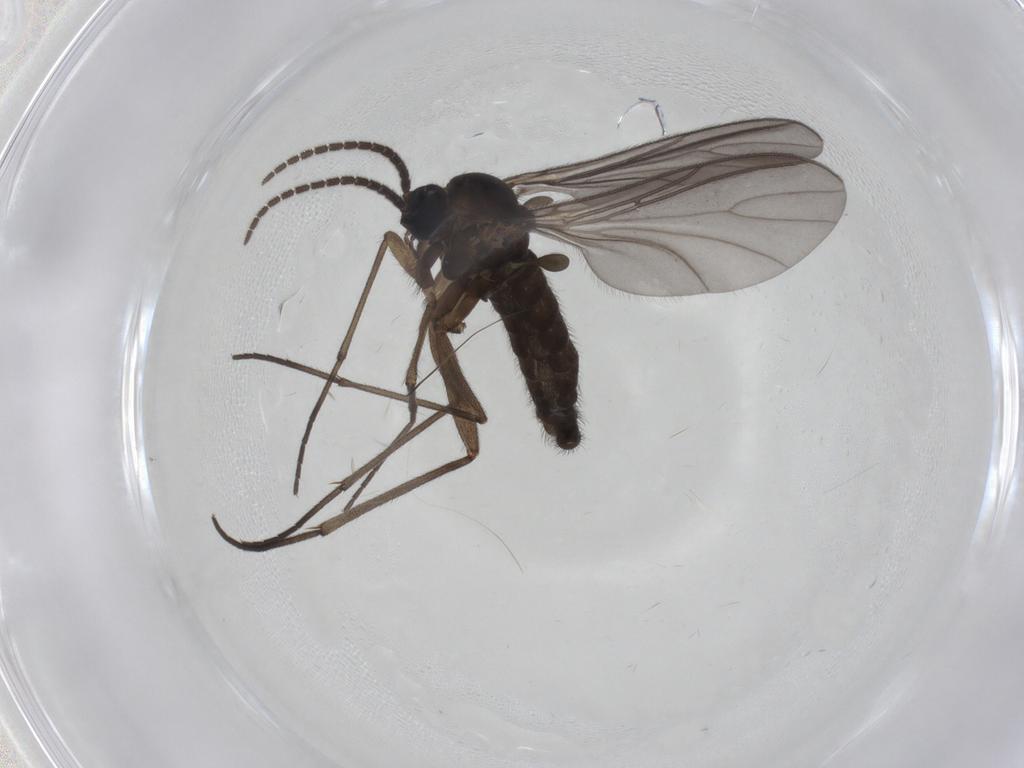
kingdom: Animalia
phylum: Arthropoda
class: Insecta
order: Diptera
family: Sciaridae
